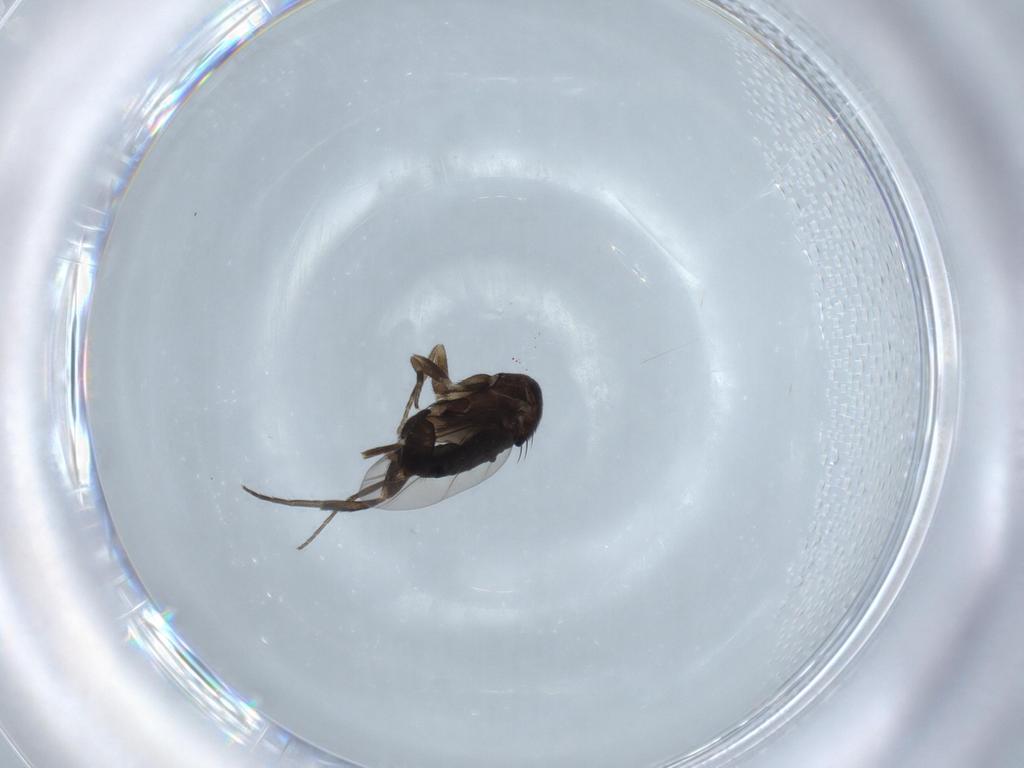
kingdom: Animalia
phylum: Arthropoda
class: Insecta
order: Diptera
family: Phoridae
